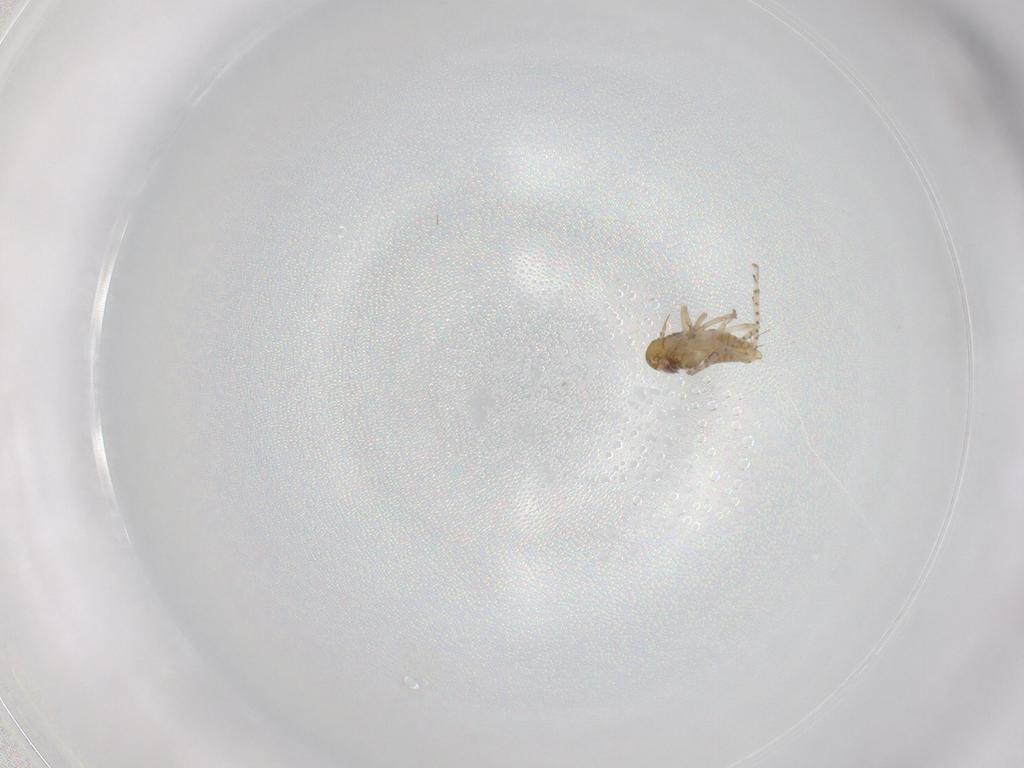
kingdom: Animalia
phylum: Arthropoda
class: Insecta
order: Hemiptera
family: Cicadellidae
